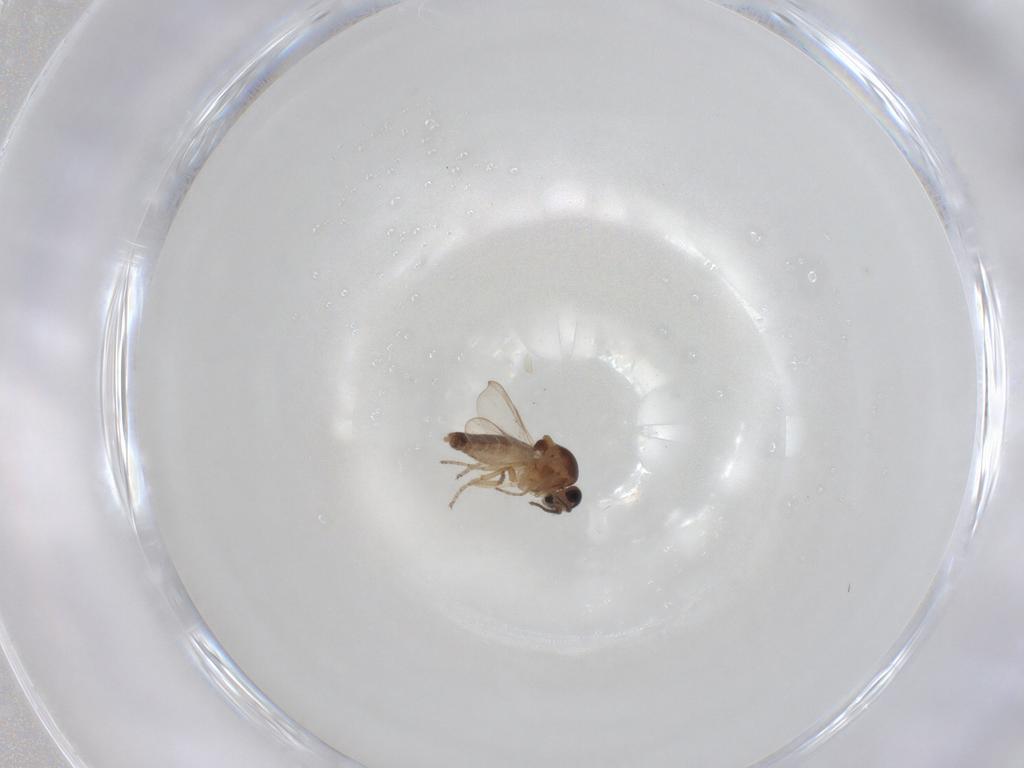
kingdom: Animalia
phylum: Arthropoda
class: Insecta
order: Diptera
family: Ceratopogonidae
